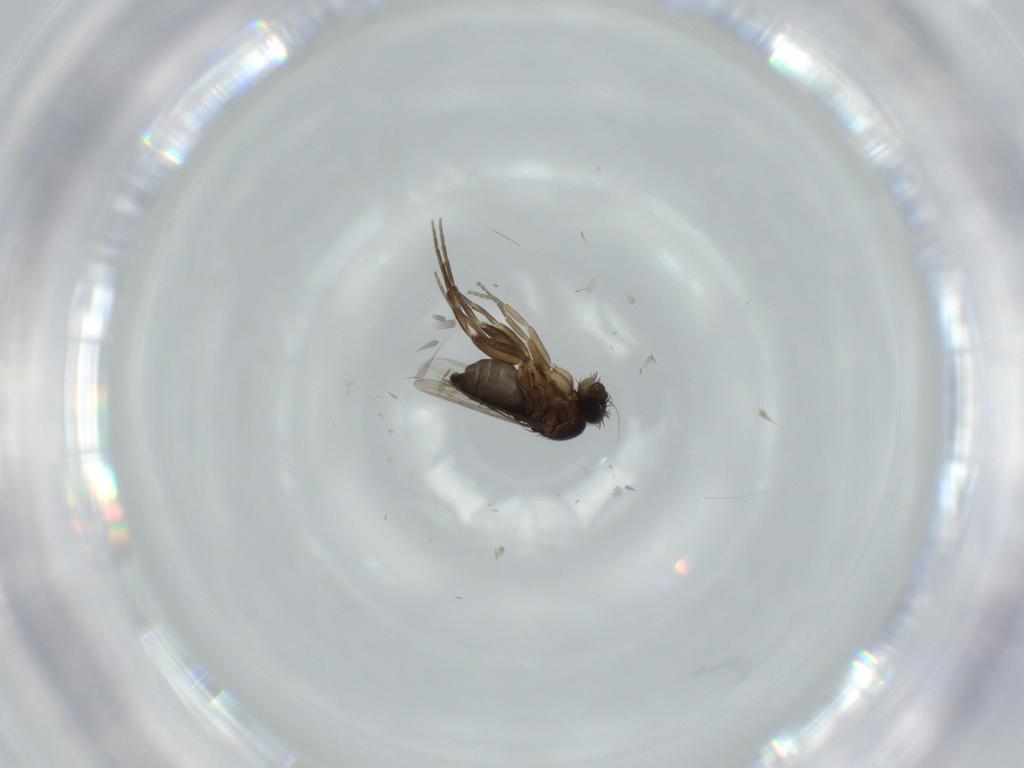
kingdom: Animalia
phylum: Arthropoda
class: Insecta
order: Diptera
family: Phoridae
